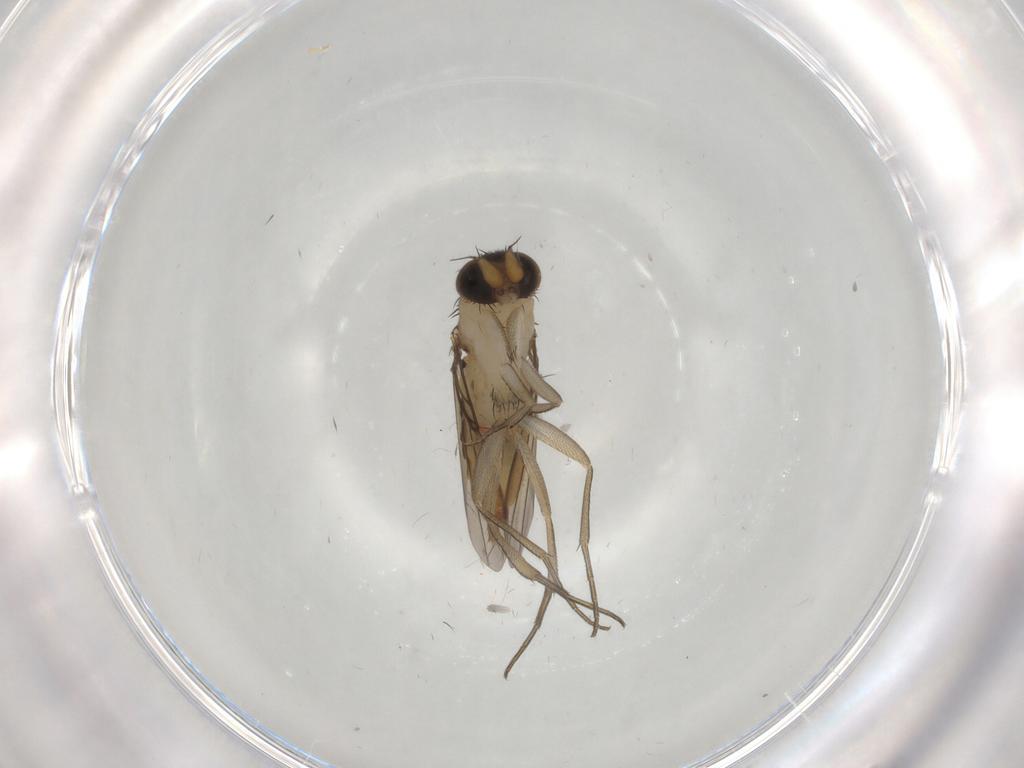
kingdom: Animalia
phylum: Arthropoda
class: Insecta
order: Diptera
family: Phoridae
